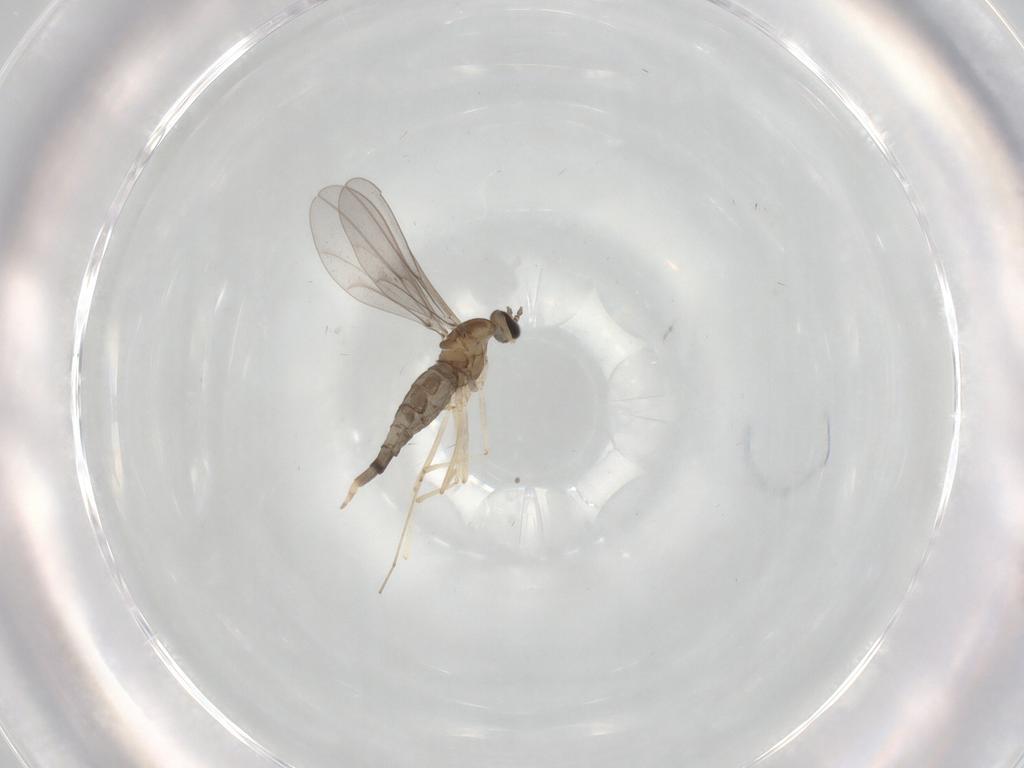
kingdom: Animalia
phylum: Arthropoda
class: Insecta
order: Diptera
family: Cecidomyiidae
